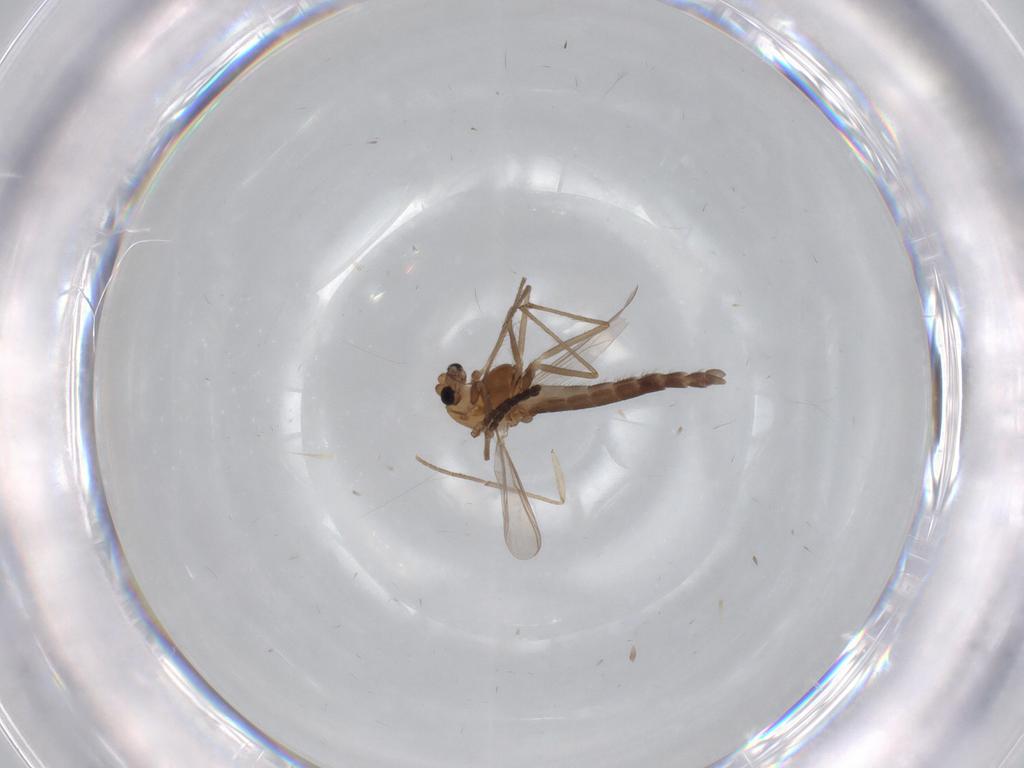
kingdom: Animalia
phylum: Arthropoda
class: Insecta
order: Diptera
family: Chironomidae
